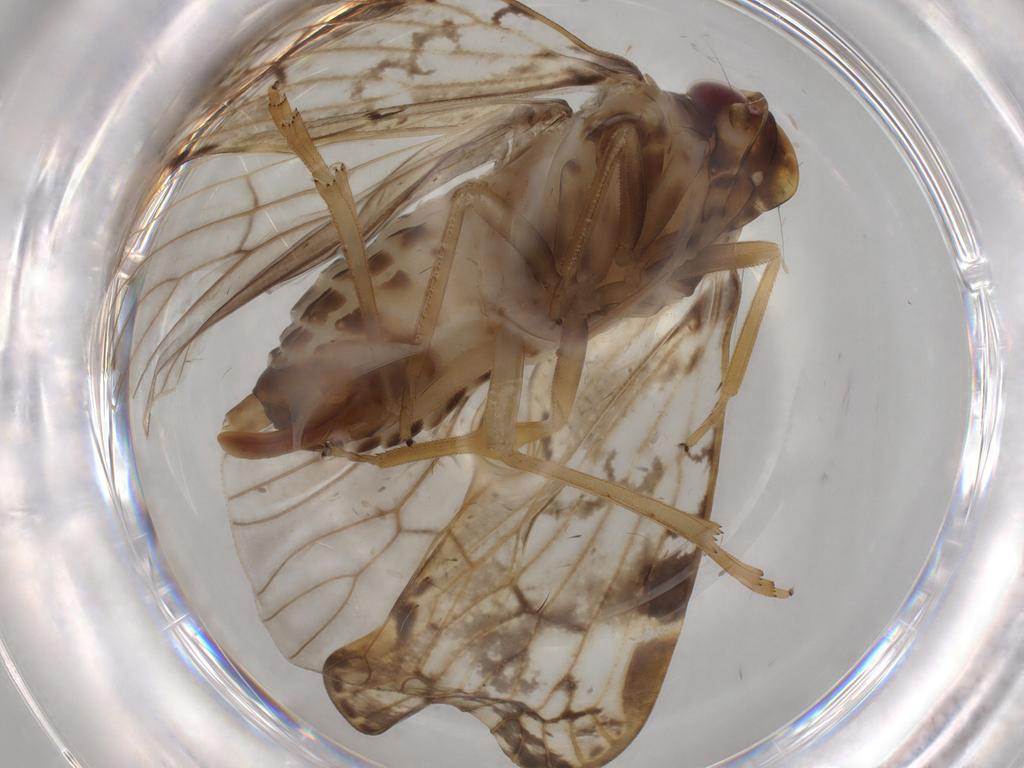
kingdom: Animalia
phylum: Arthropoda
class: Insecta
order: Hemiptera
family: Cixiidae
